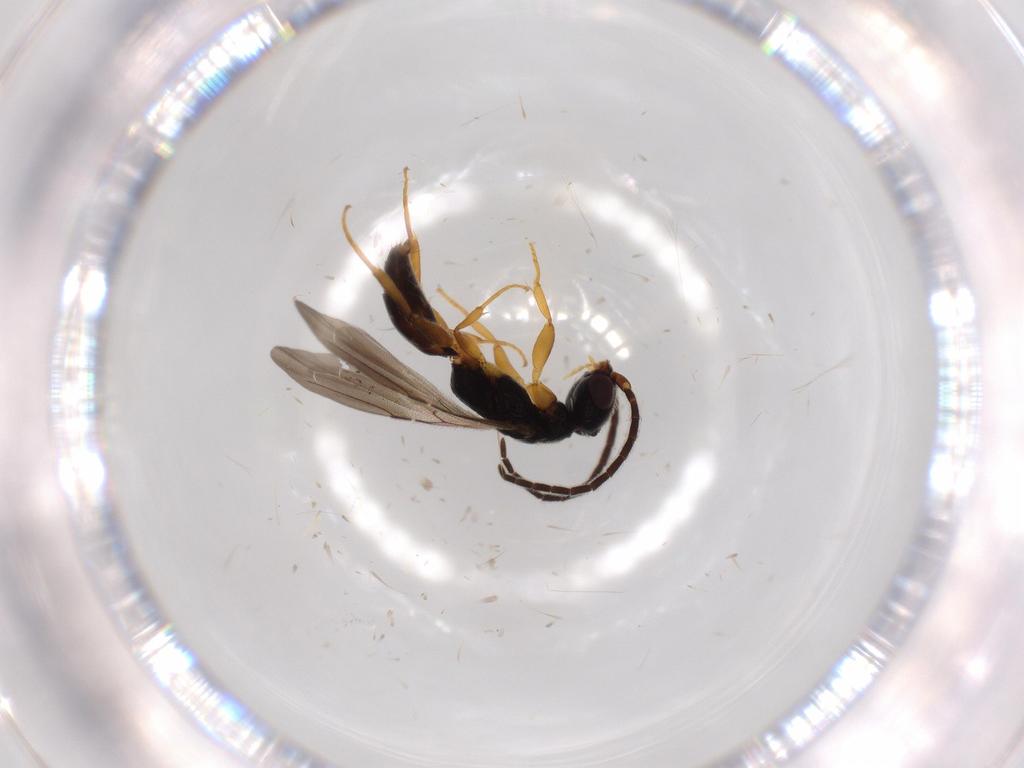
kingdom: Animalia
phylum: Arthropoda
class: Insecta
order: Hymenoptera
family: Bethylidae
